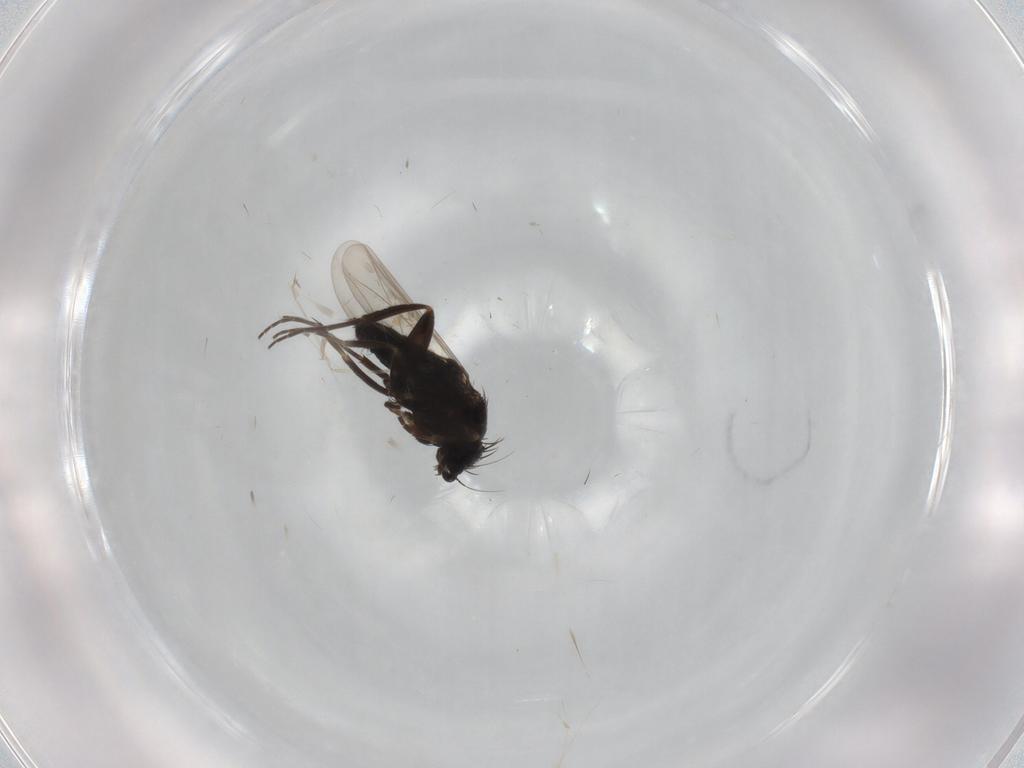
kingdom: Animalia
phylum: Arthropoda
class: Insecta
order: Diptera
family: Phoridae
